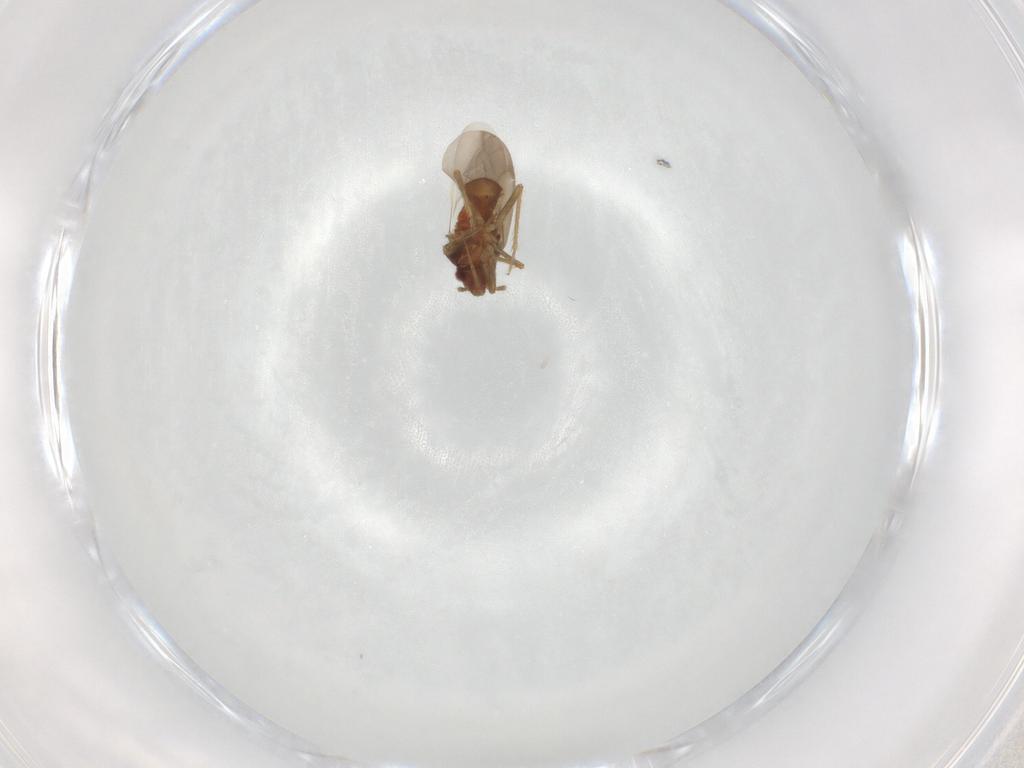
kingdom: Animalia
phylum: Arthropoda
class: Insecta
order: Hemiptera
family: Ceratocombidae
